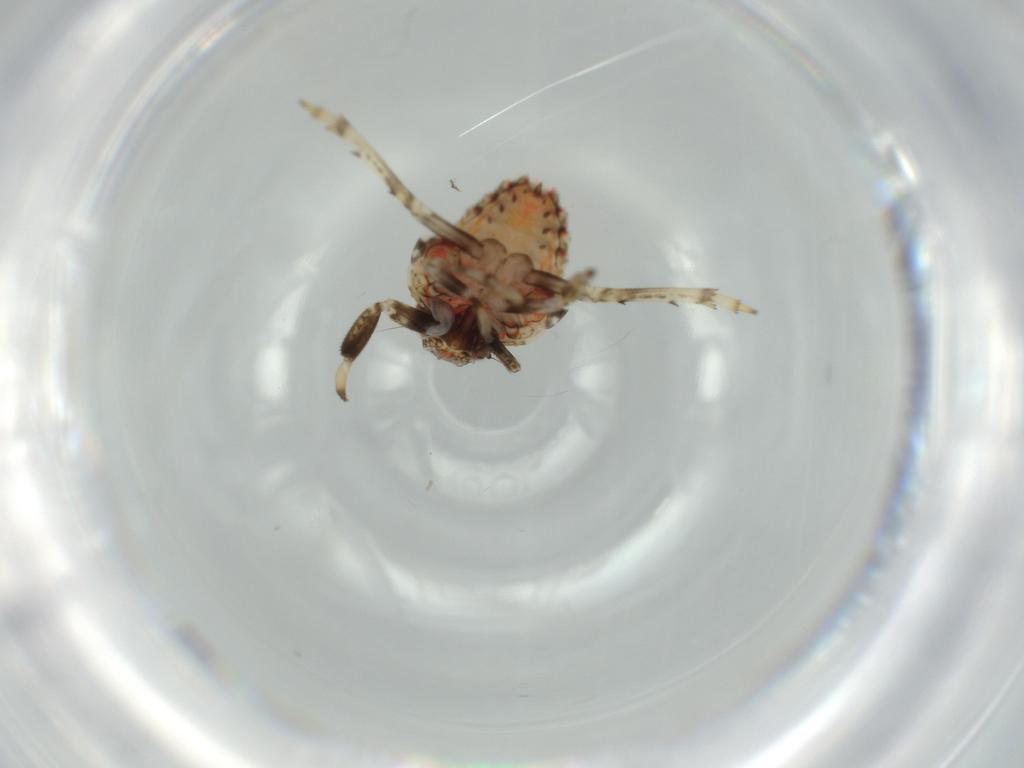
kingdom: Animalia
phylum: Arthropoda
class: Insecta
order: Hemiptera
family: Issidae
